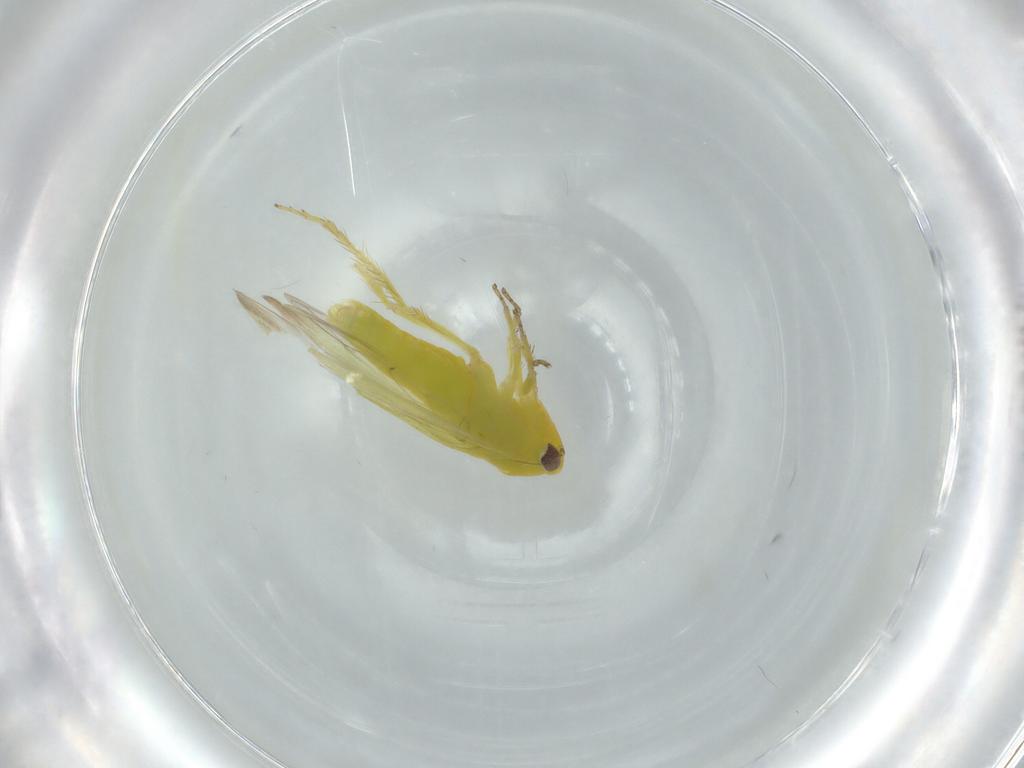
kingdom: Animalia
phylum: Arthropoda
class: Insecta
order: Hemiptera
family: Cicadellidae
